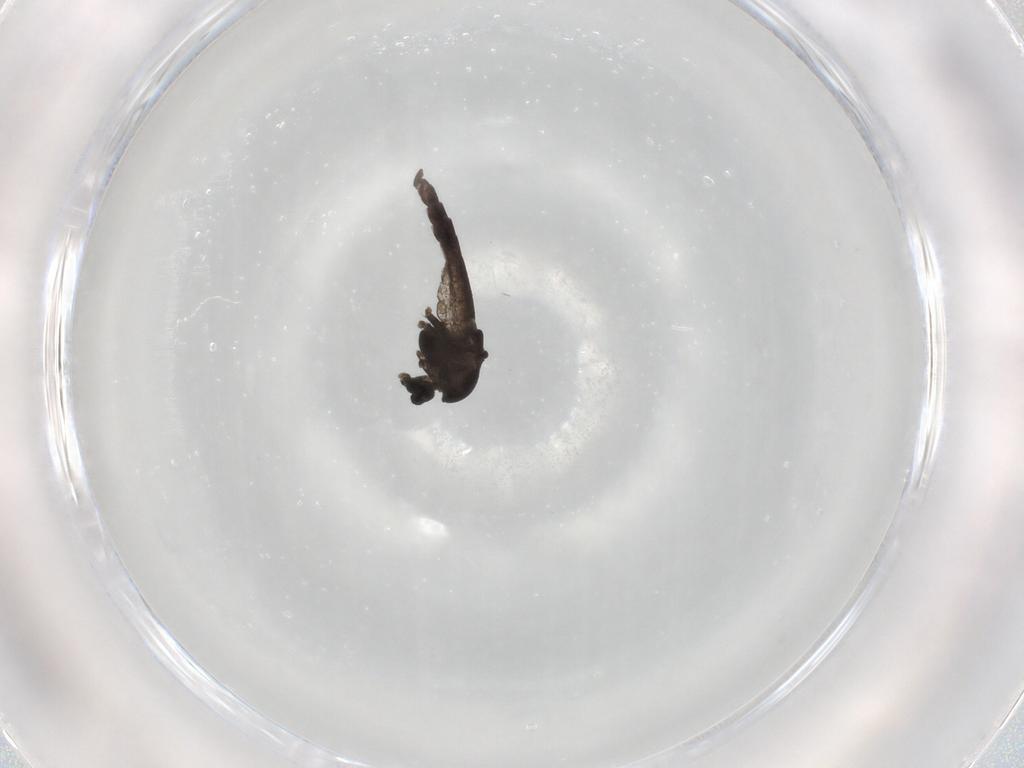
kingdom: Animalia
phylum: Arthropoda
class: Insecta
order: Diptera
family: Chironomidae
